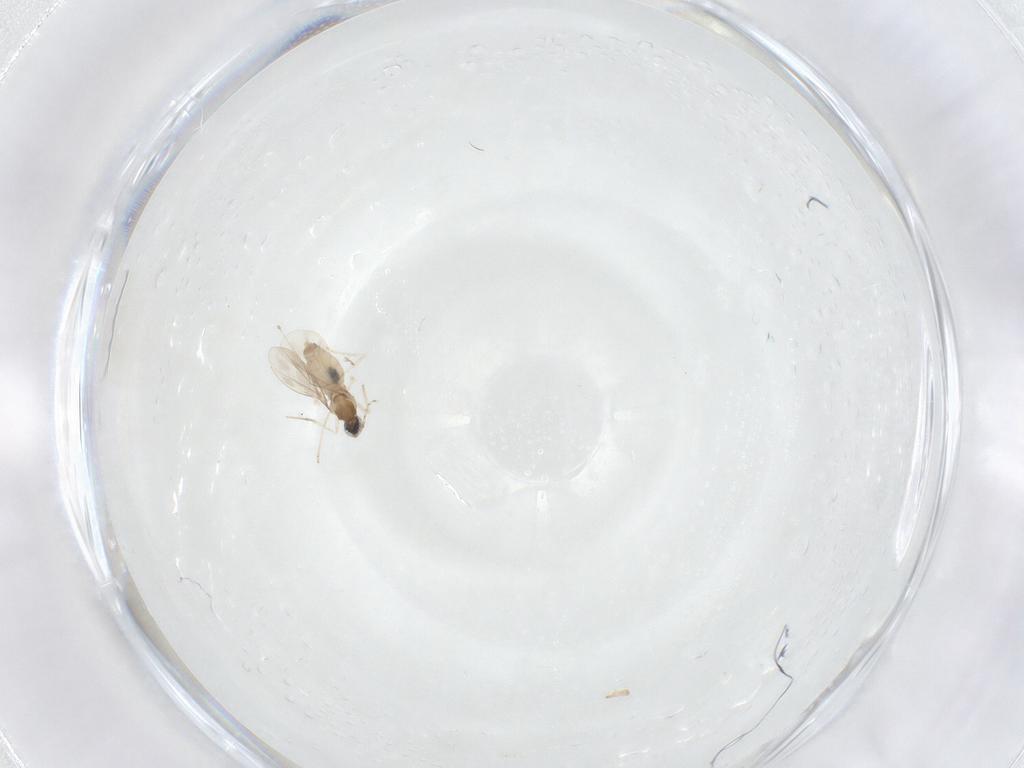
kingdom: Animalia
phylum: Arthropoda
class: Insecta
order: Diptera
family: Cecidomyiidae
